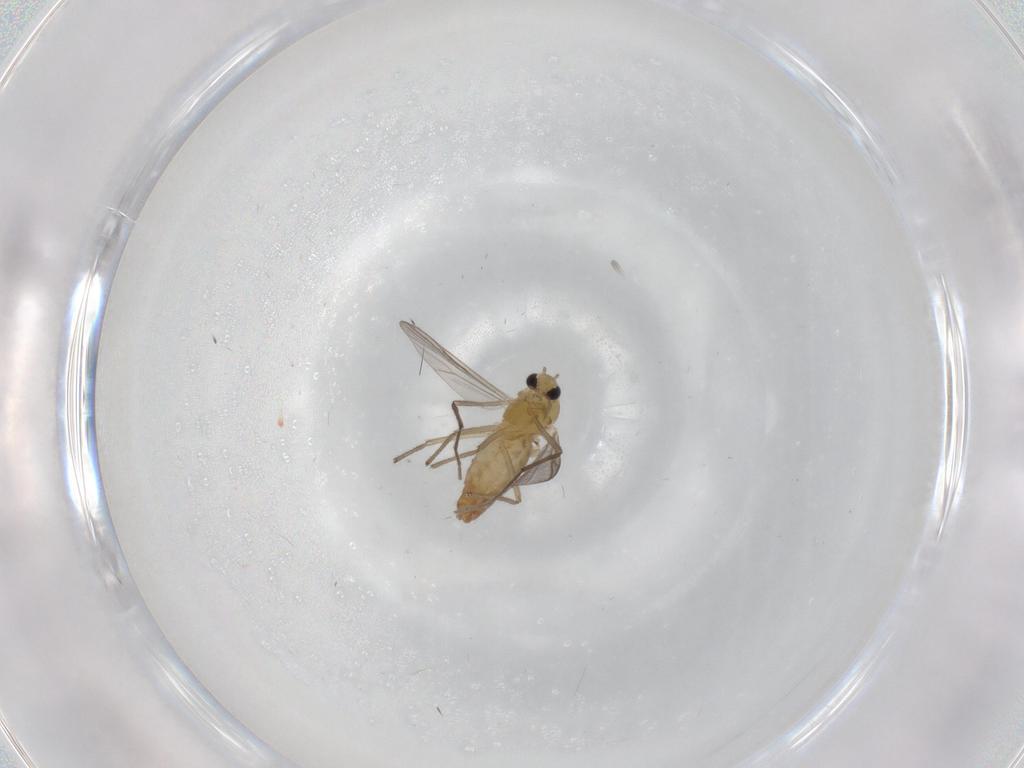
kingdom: Animalia
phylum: Arthropoda
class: Insecta
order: Diptera
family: Chironomidae
